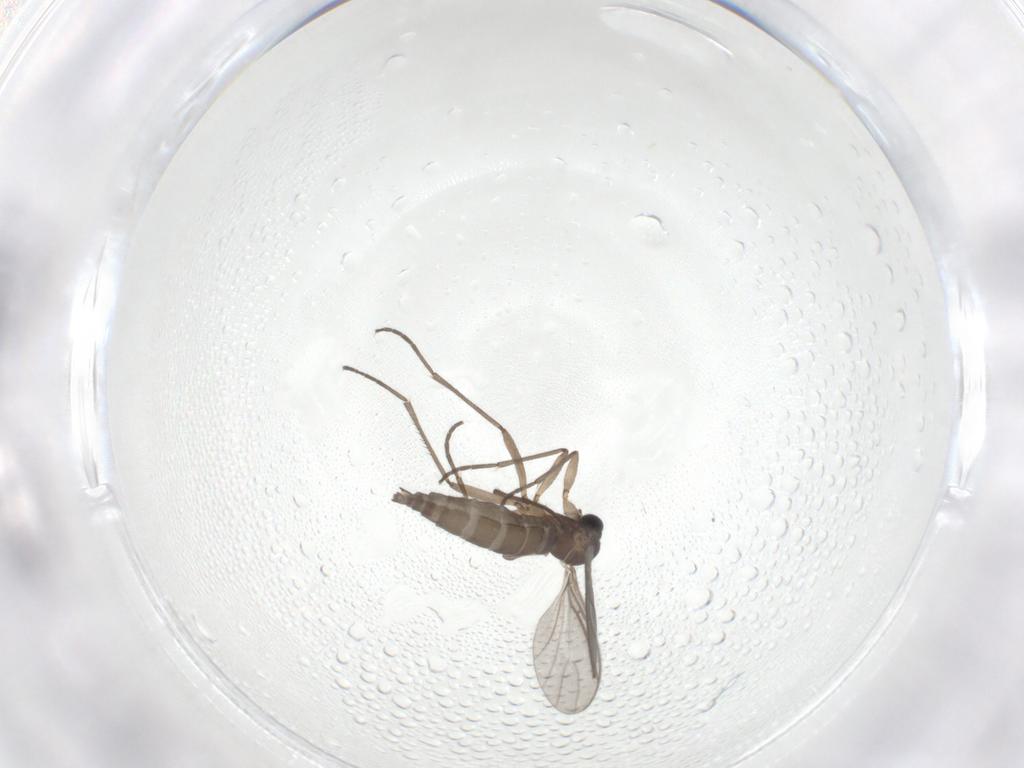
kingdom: Animalia
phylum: Arthropoda
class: Insecta
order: Diptera
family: Sciaridae
